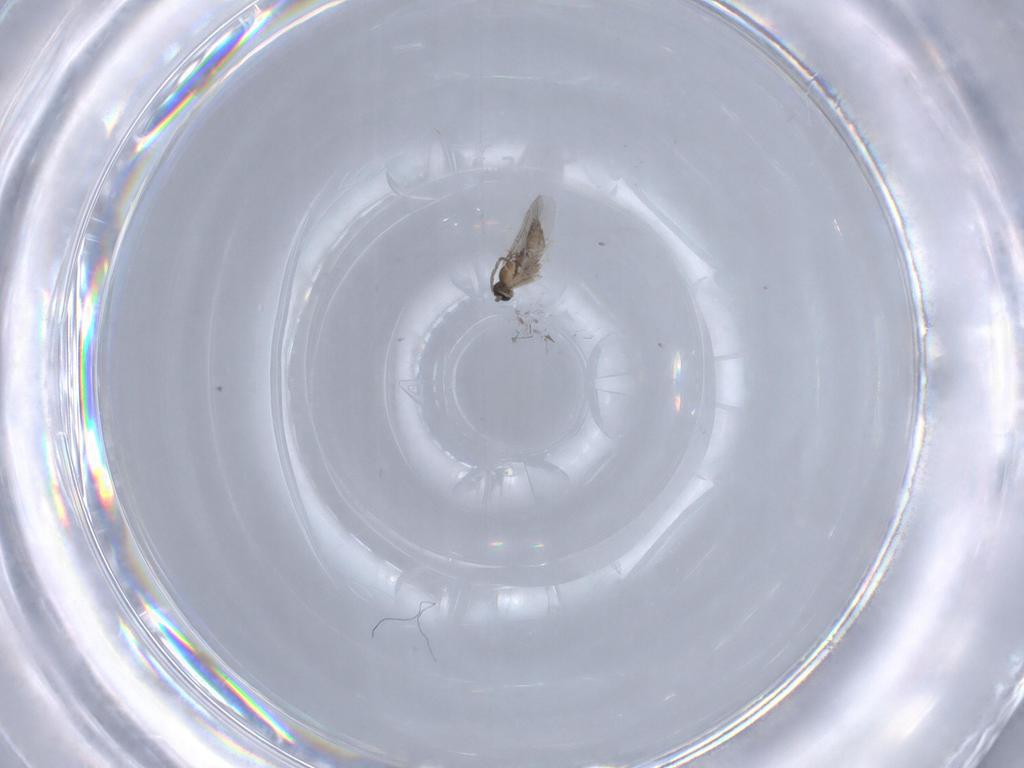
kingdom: Animalia
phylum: Arthropoda
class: Insecta
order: Diptera
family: Cecidomyiidae
